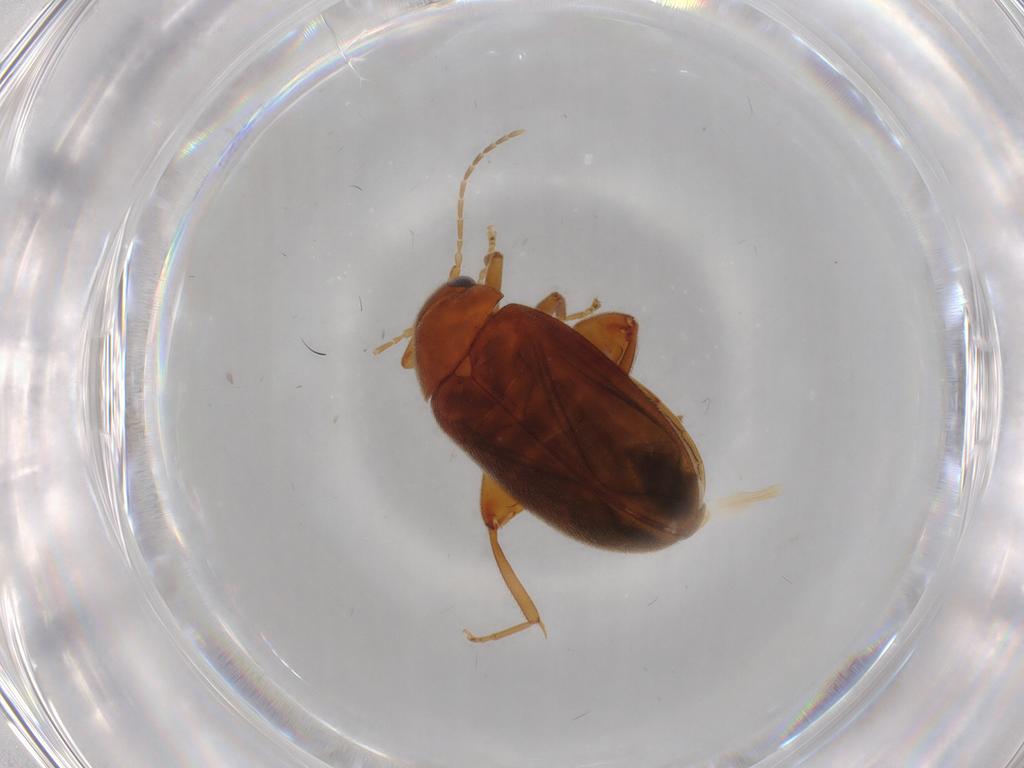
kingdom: Animalia
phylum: Arthropoda
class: Insecta
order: Coleoptera
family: Scirtidae
